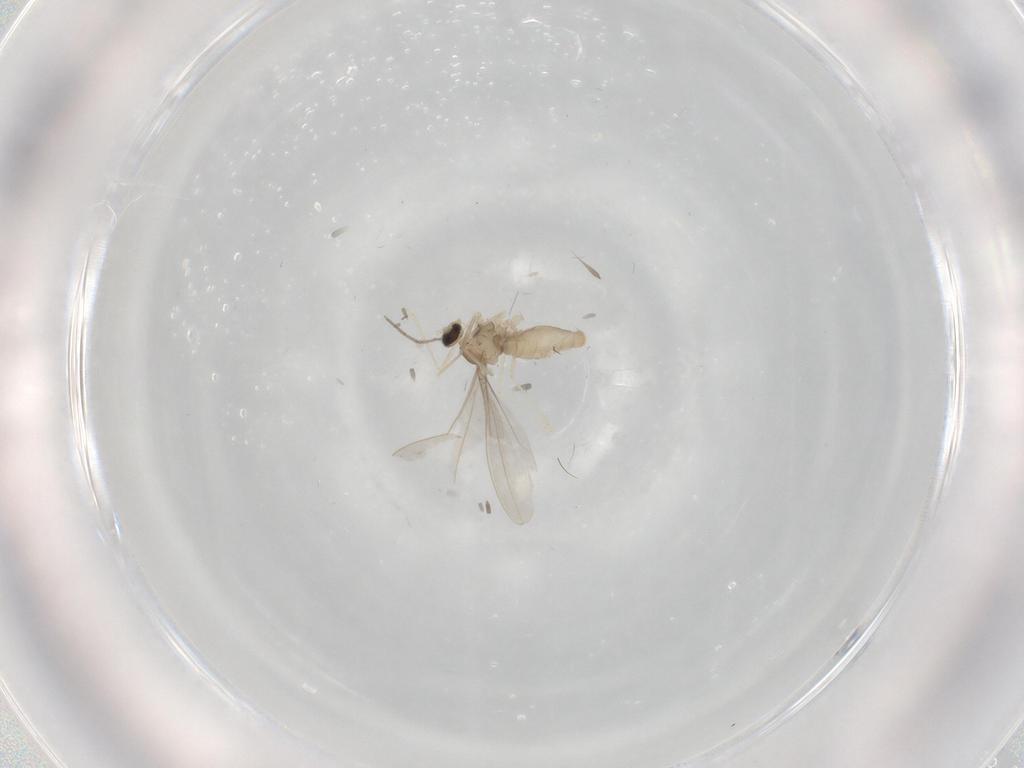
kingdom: Animalia
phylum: Arthropoda
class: Insecta
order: Diptera
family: Cecidomyiidae
